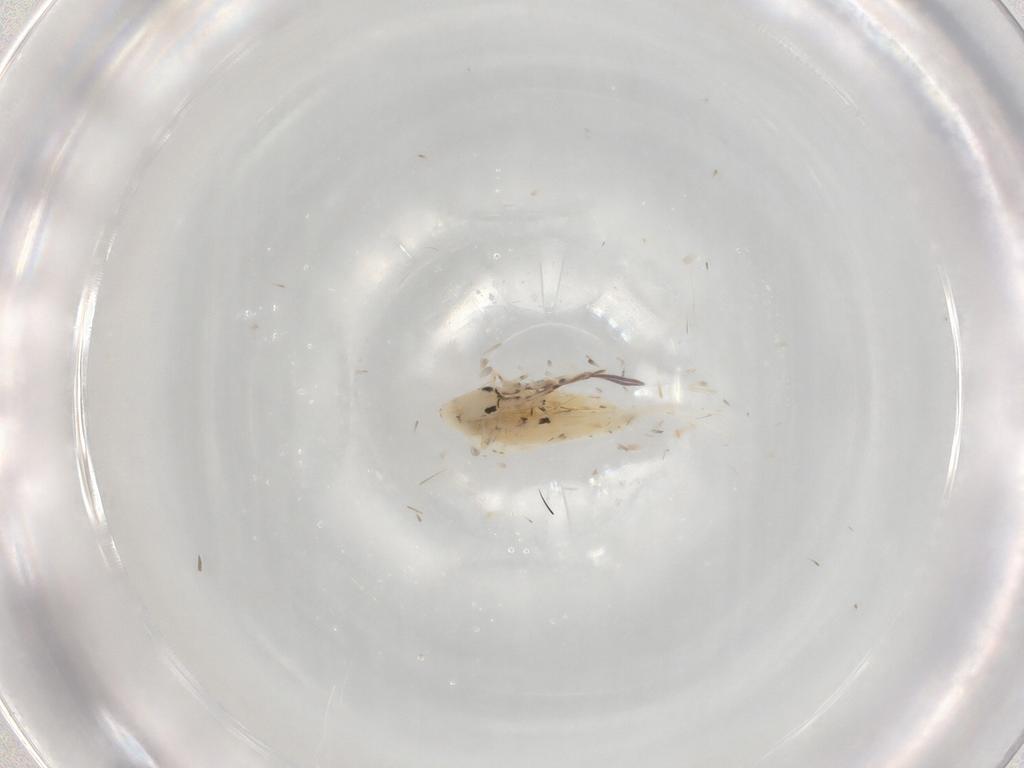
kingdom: Animalia
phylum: Arthropoda
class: Collembola
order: Entomobryomorpha
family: Entomobryidae
